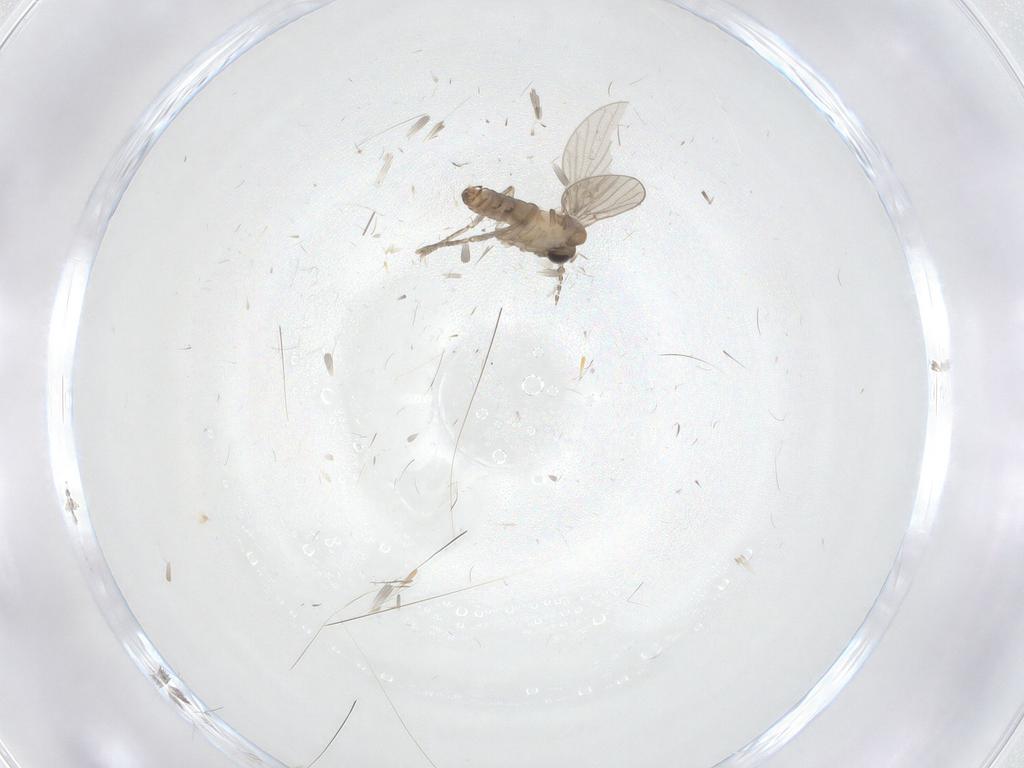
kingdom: Animalia
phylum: Arthropoda
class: Insecta
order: Diptera
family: Psychodidae
